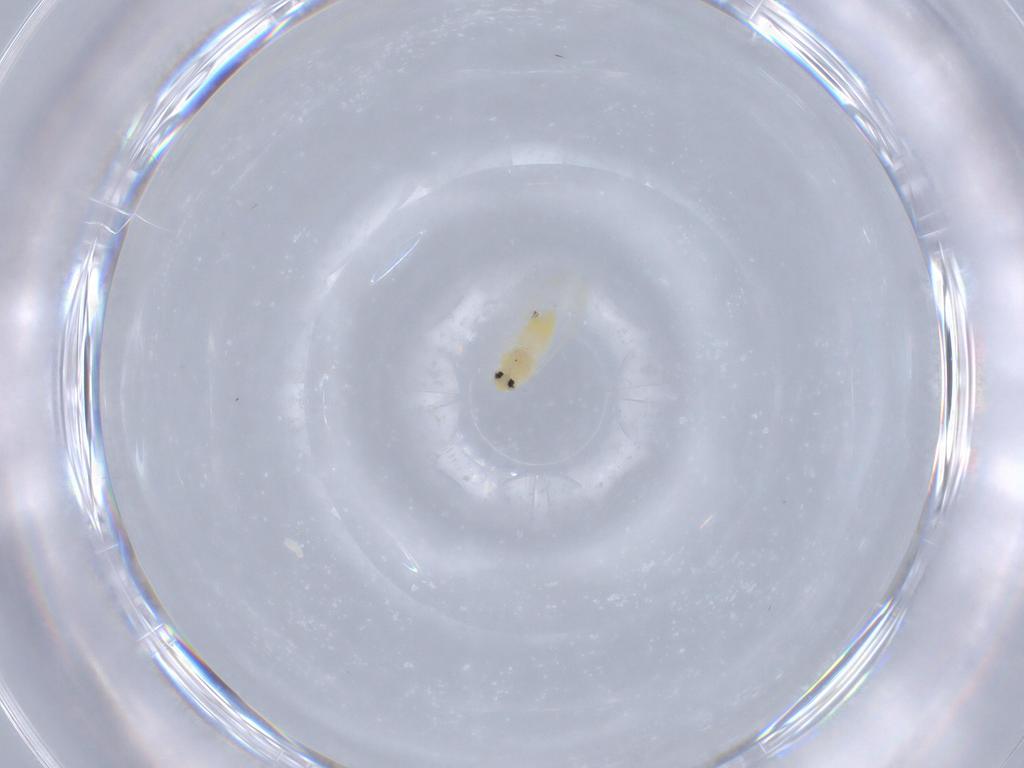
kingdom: Animalia
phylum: Arthropoda
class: Insecta
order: Hemiptera
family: Aleyrodidae
